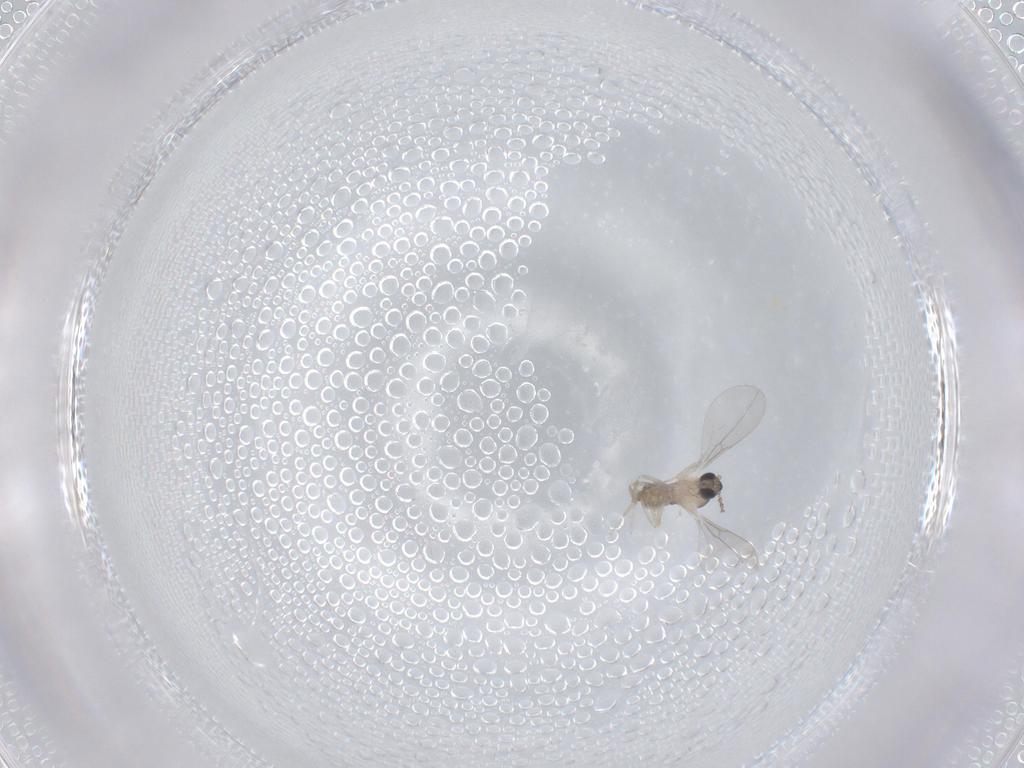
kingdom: Animalia
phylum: Arthropoda
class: Insecta
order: Diptera
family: Cecidomyiidae
